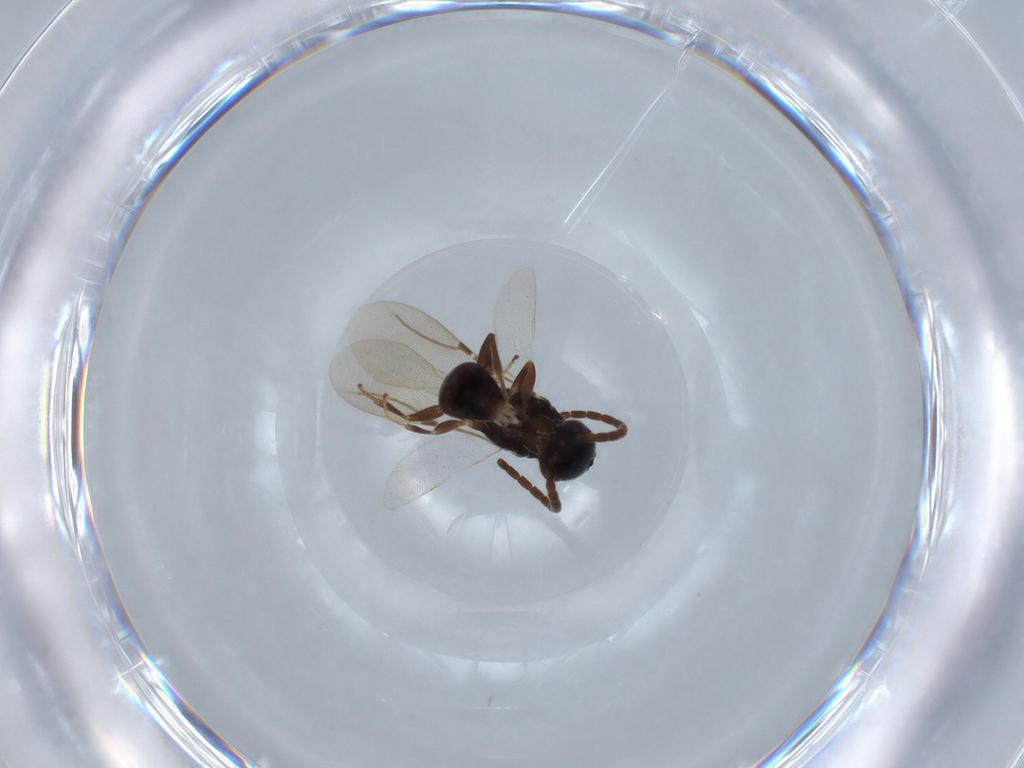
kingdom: Animalia
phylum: Arthropoda
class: Insecta
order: Hymenoptera
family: Bethylidae
